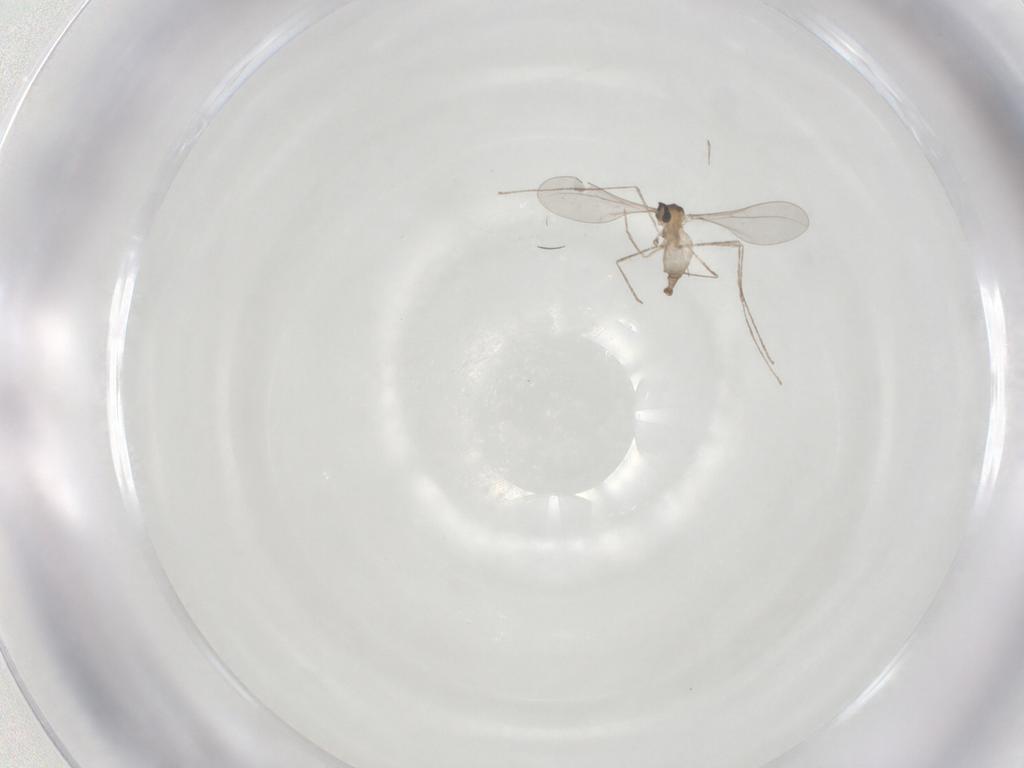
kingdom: Animalia
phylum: Arthropoda
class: Insecta
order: Diptera
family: Cecidomyiidae
